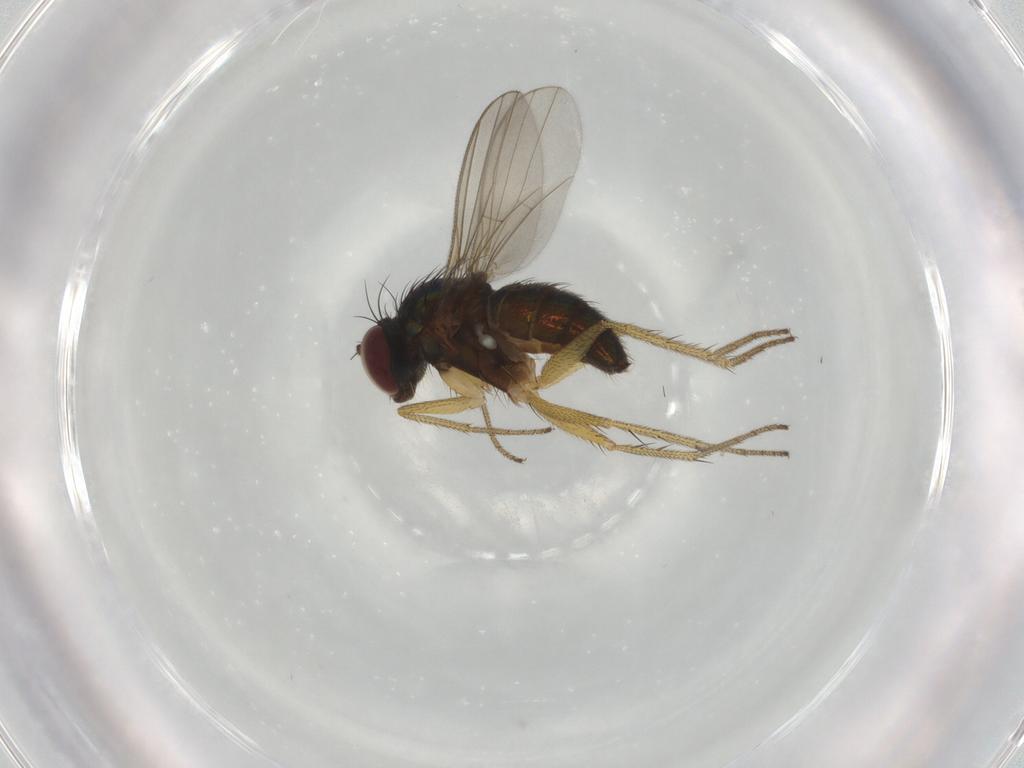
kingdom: Animalia
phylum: Arthropoda
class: Insecta
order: Diptera
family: Dolichopodidae
